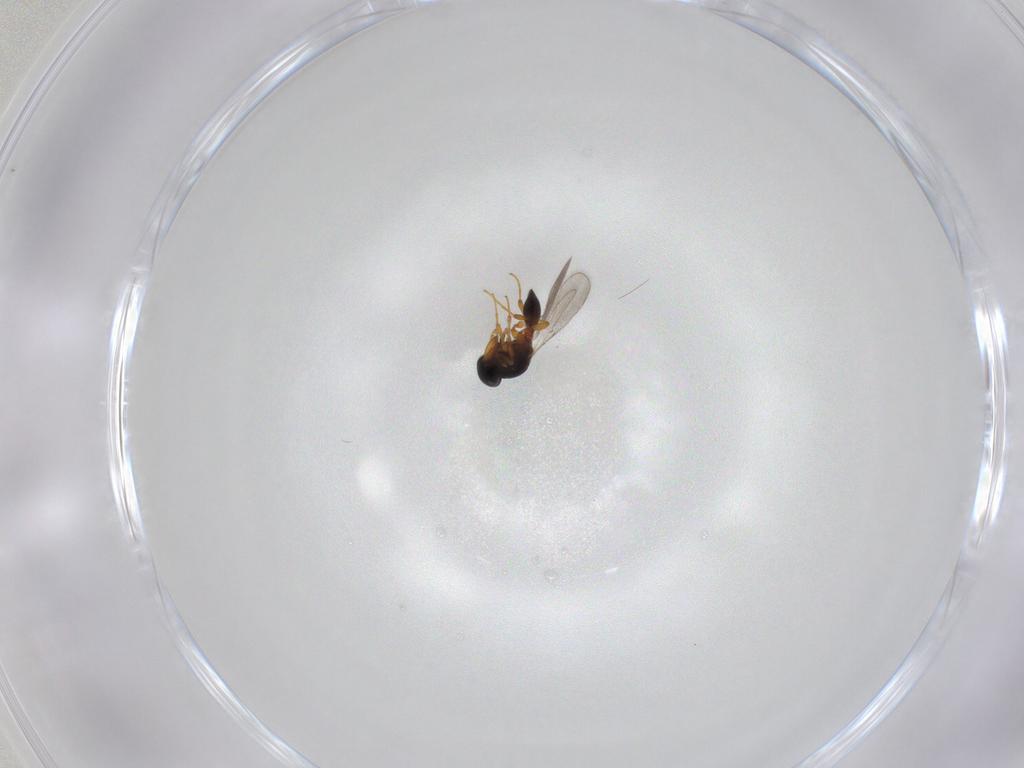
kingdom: Animalia
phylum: Arthropoda
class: Insecta
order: Hymenoptera
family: Platygastridae
